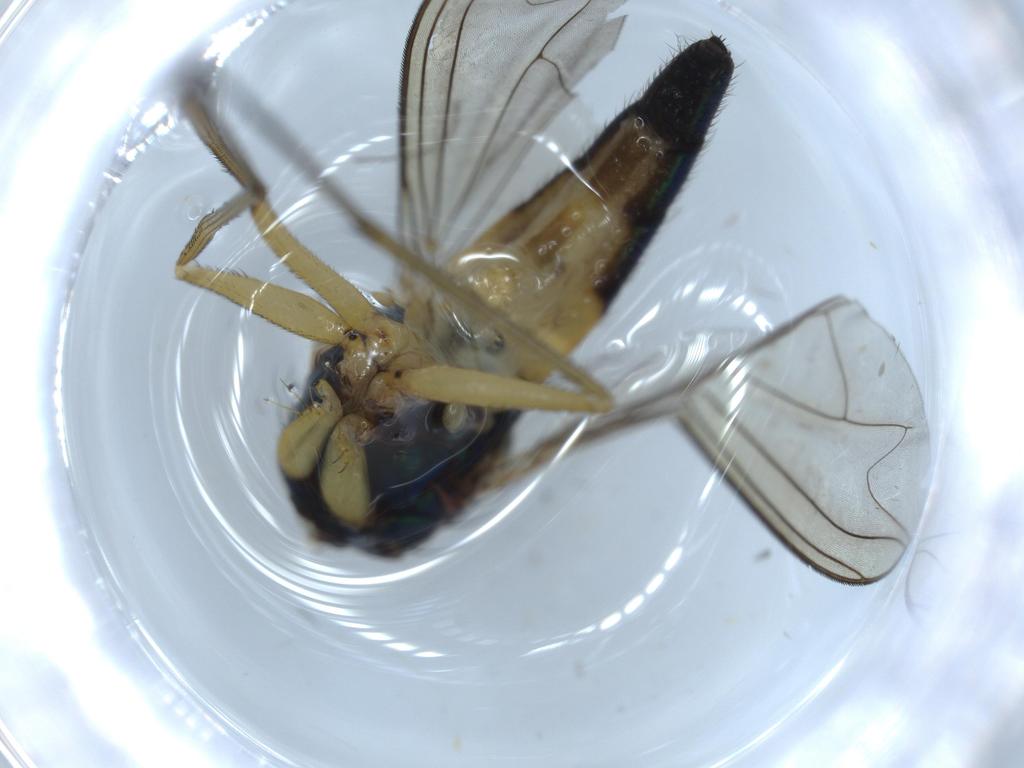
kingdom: Animalia
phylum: Arthropoda
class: Insecta
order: Diptera
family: Dolichopodidae
